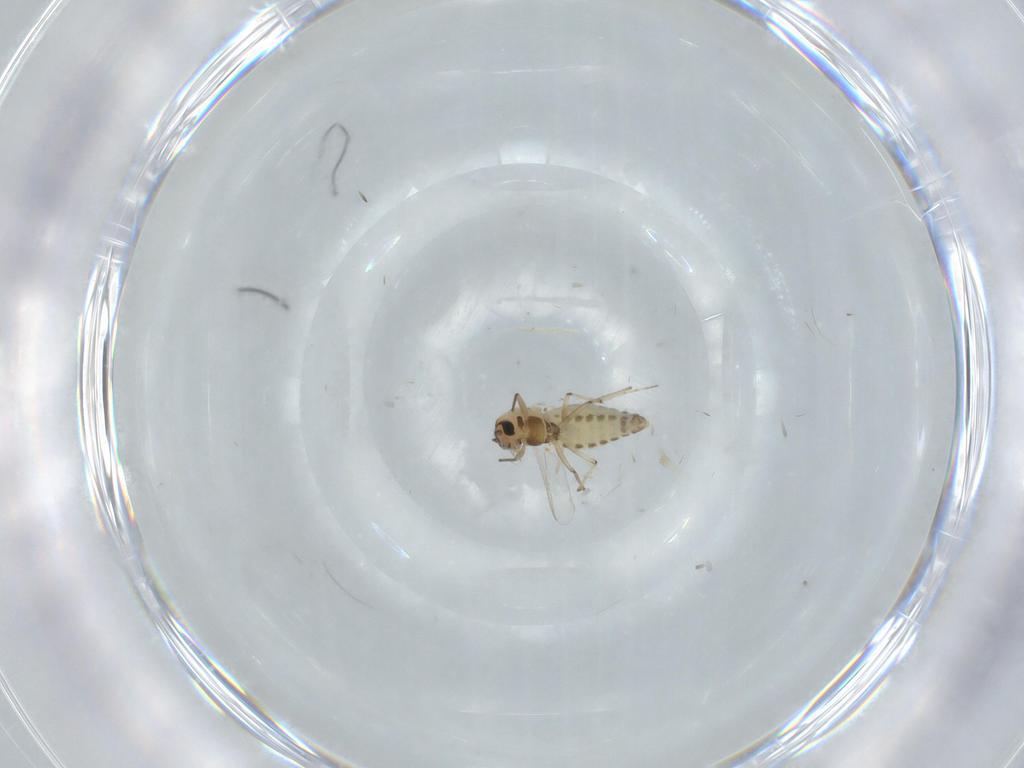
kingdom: Animalia
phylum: Arthropoda
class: Insecta
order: Diptera
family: Chironomidae
